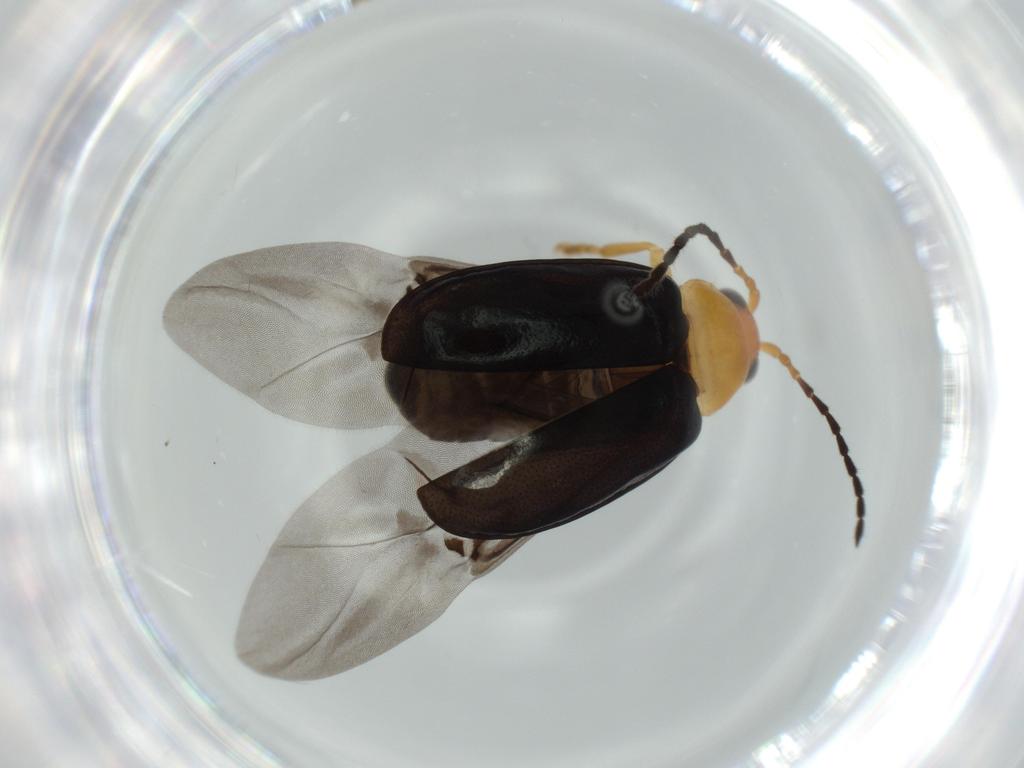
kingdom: Animalia
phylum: Arthropoda
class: Insecta
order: Coleoptera
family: Chrysomelidae
